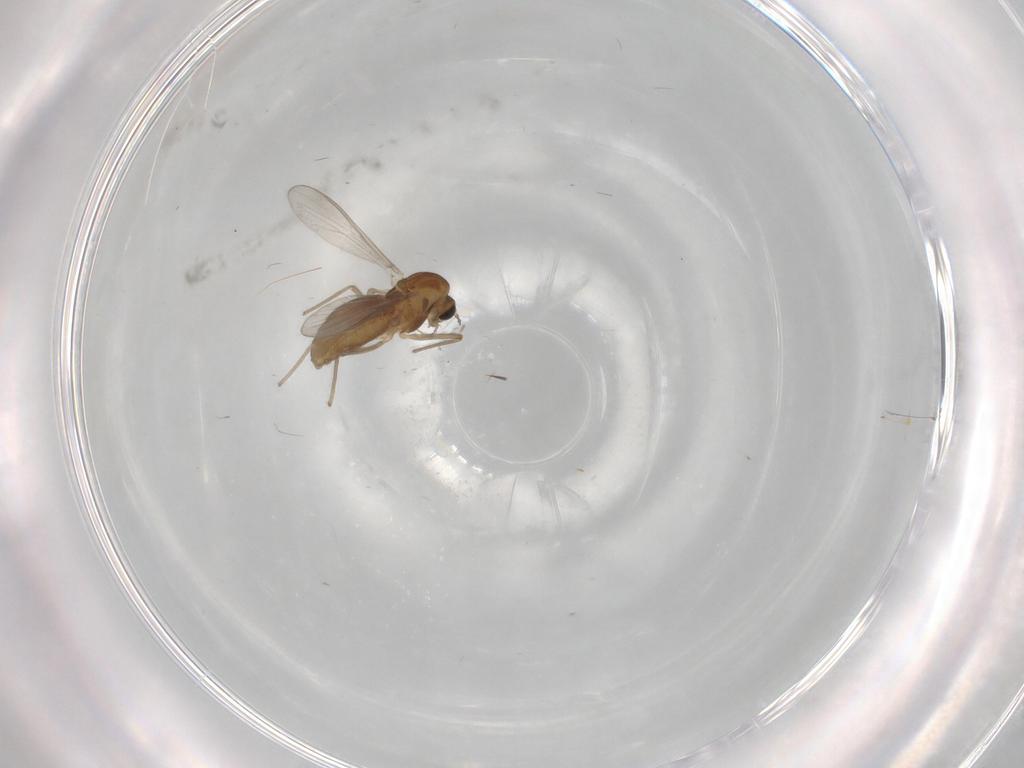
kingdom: Animalia
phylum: Arthropoda
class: Insecta
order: Diptera
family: Chironomidae
